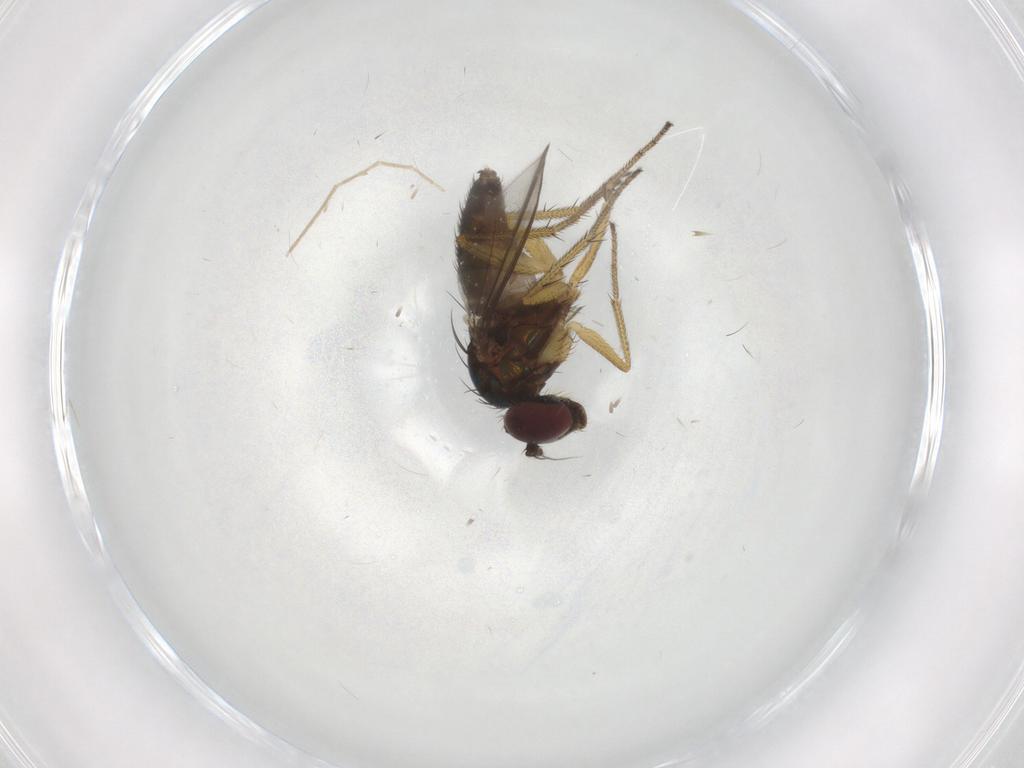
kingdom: Animalia
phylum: Arthropoda
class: Insecta
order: Diptera
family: Dolichopodidae
